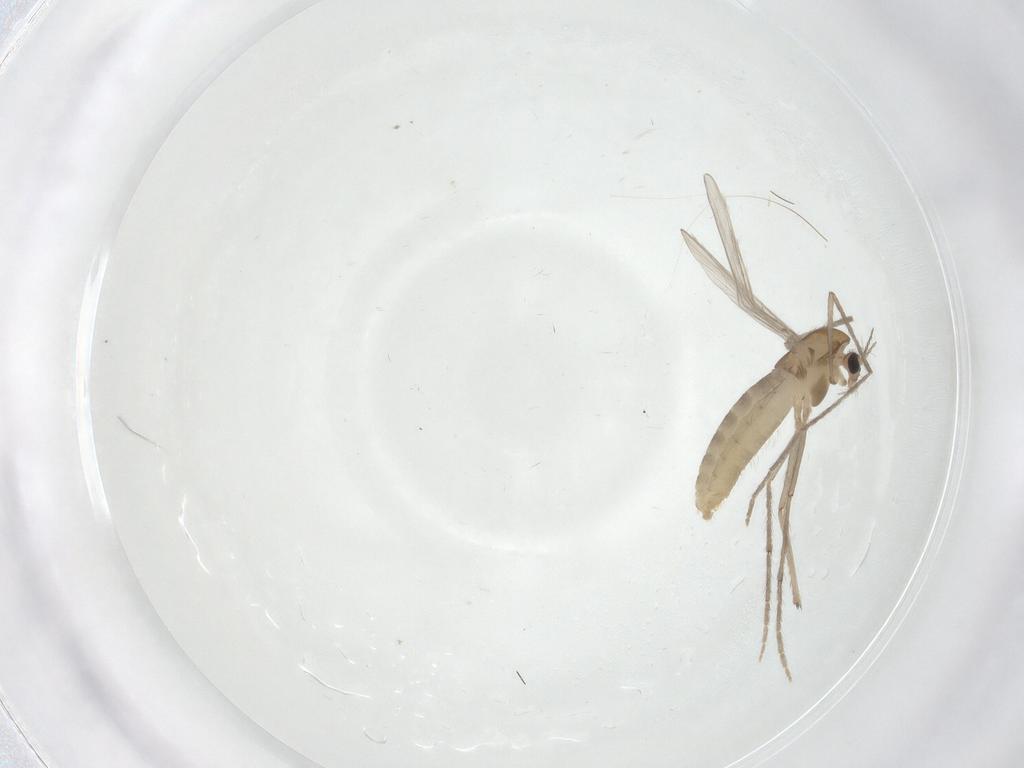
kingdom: Animalia
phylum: Arthropoda
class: Insecta
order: Diptera
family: Chironomidae
